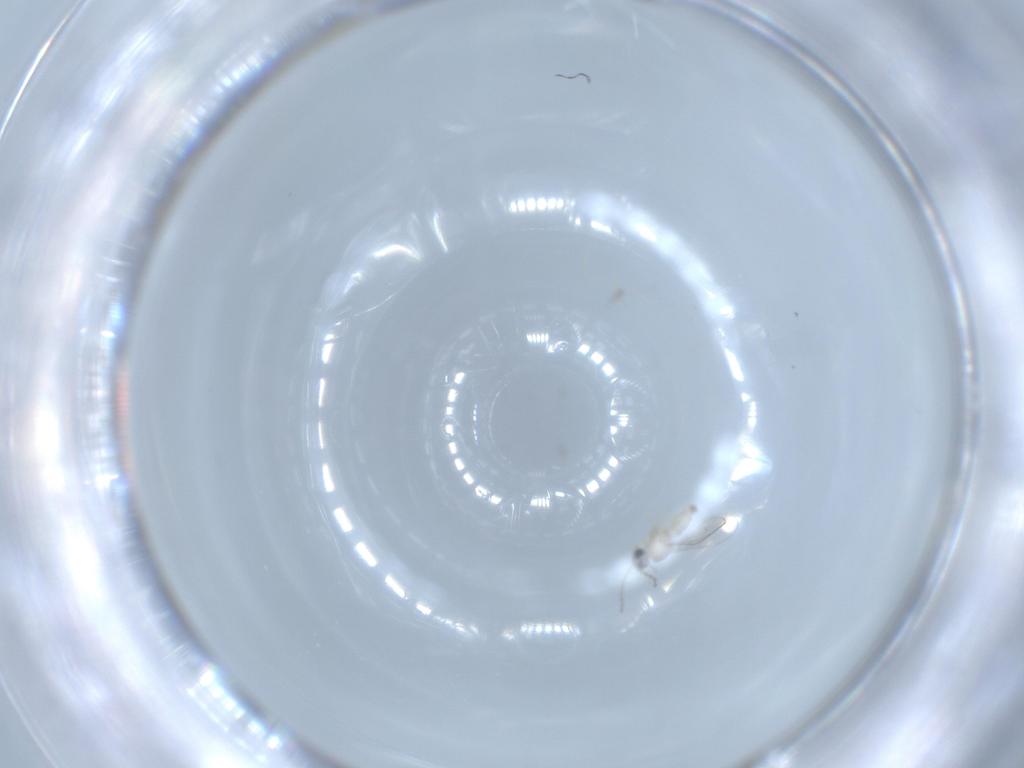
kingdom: Animalia
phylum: Arthropoda
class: Insecta
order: Diptera
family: Cecidomyiidae
